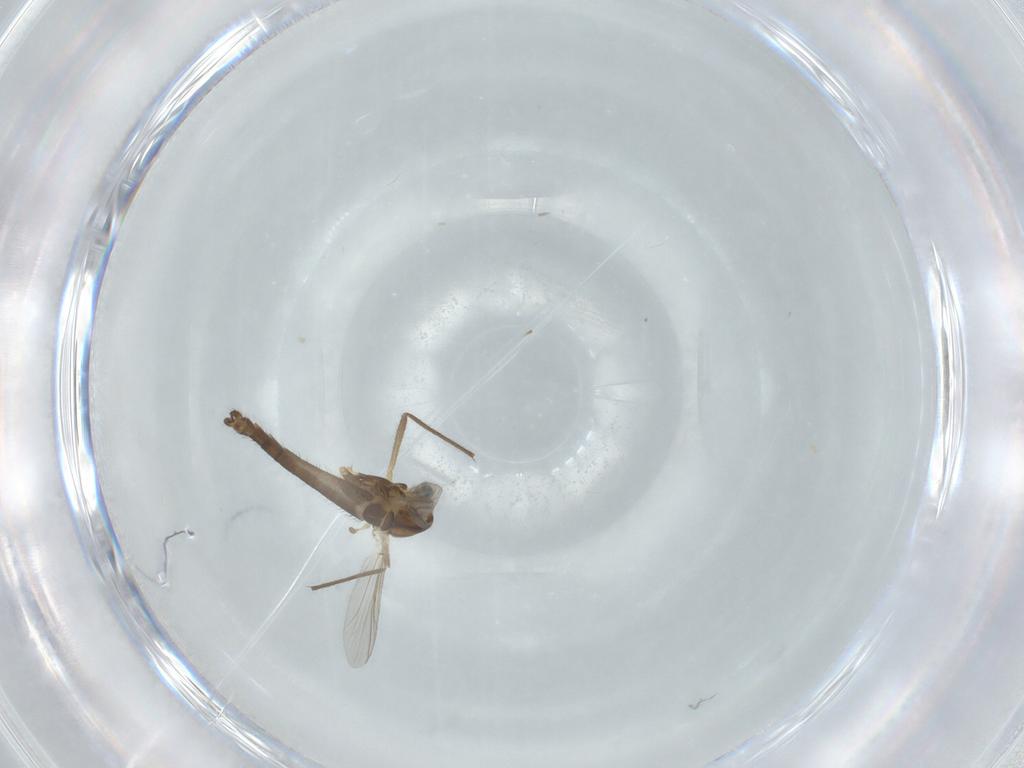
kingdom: Animalia
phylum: Arthropoda
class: Insecta
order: Diptera
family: Chironomidae
